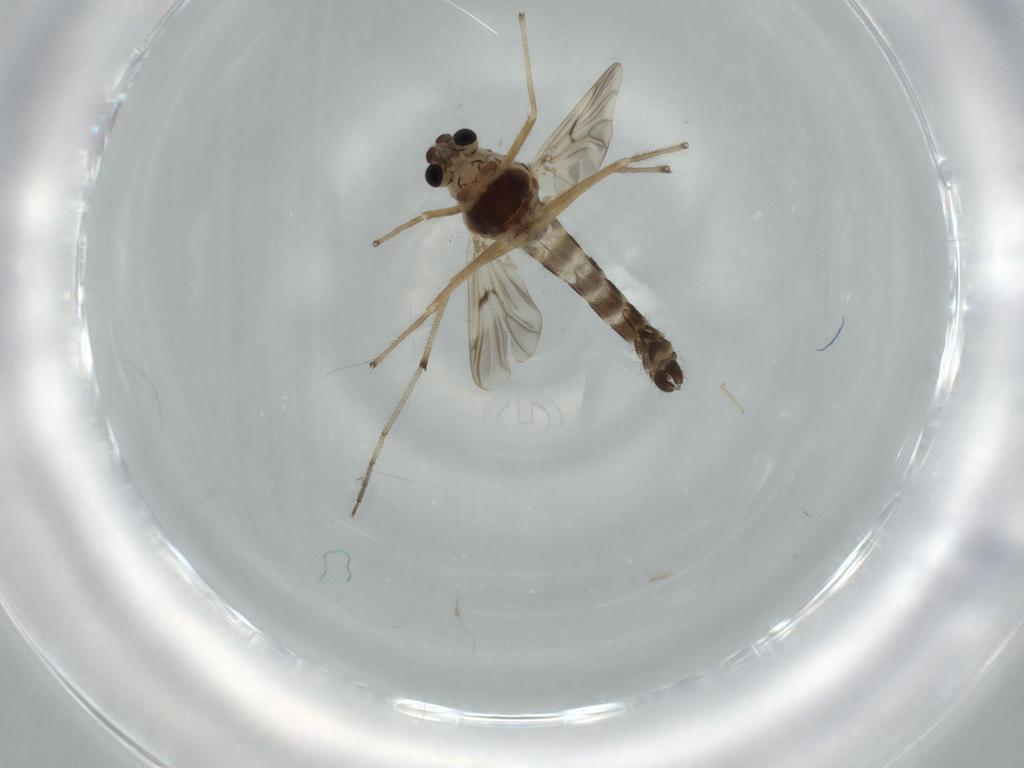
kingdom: Animalia
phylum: Arthropoda
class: Insecta
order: Diptera
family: Chironomidae
